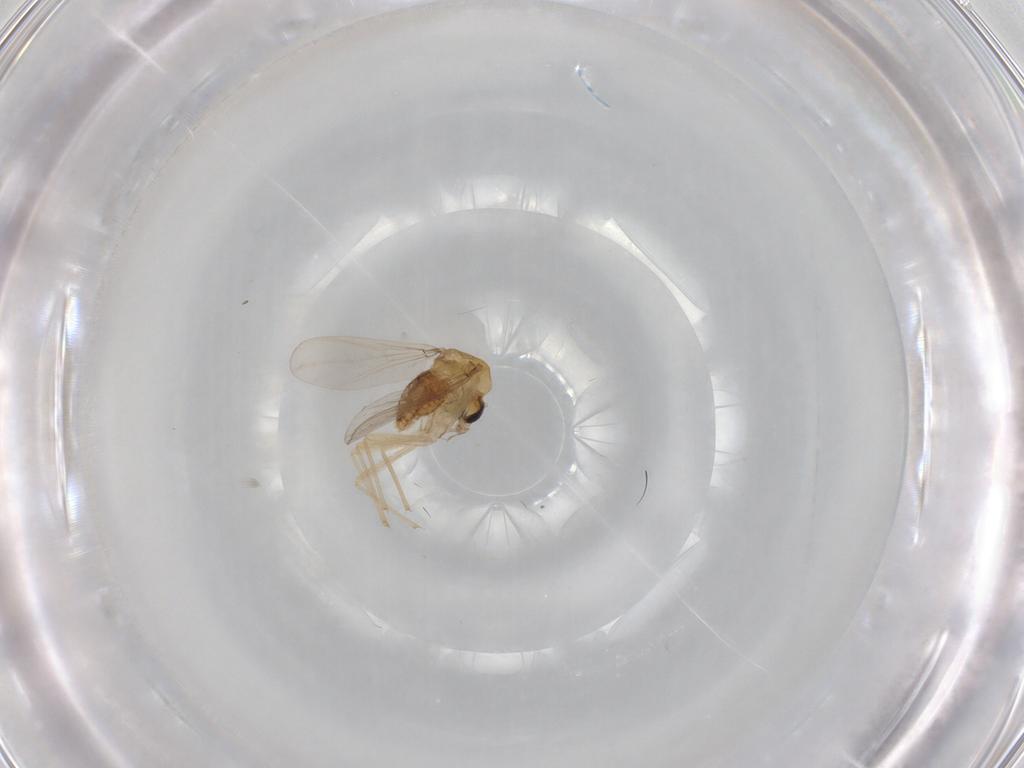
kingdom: Animalia
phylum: Arthropoda
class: Insecta
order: Diptera
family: Chironomidae
